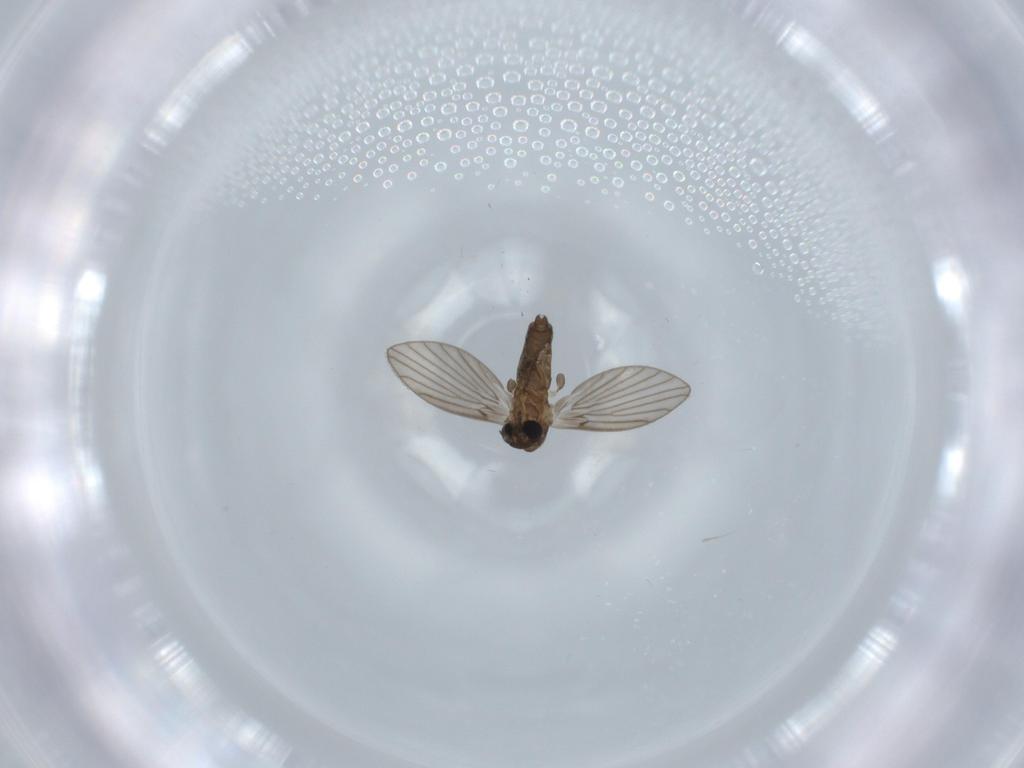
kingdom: Animalia
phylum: Arthropoda
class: Insecta
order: Diptera
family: Psychodidae
